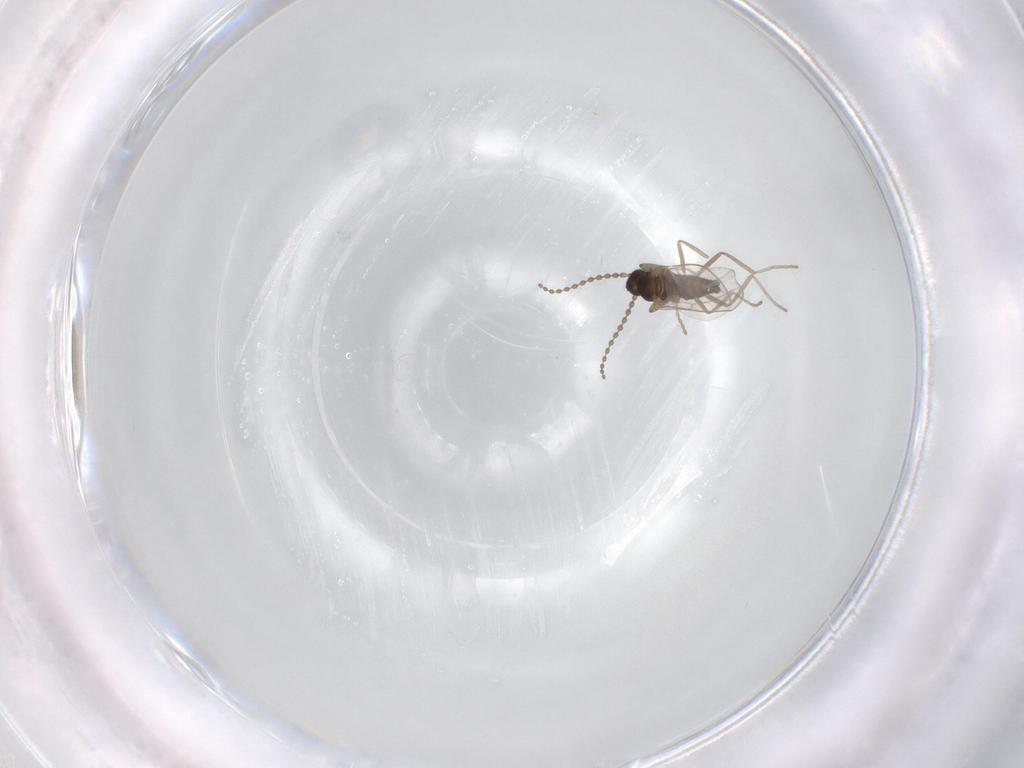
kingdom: Animalia
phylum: Arthropoda
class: Insecta
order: Diptera
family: Cecidomyiidae
